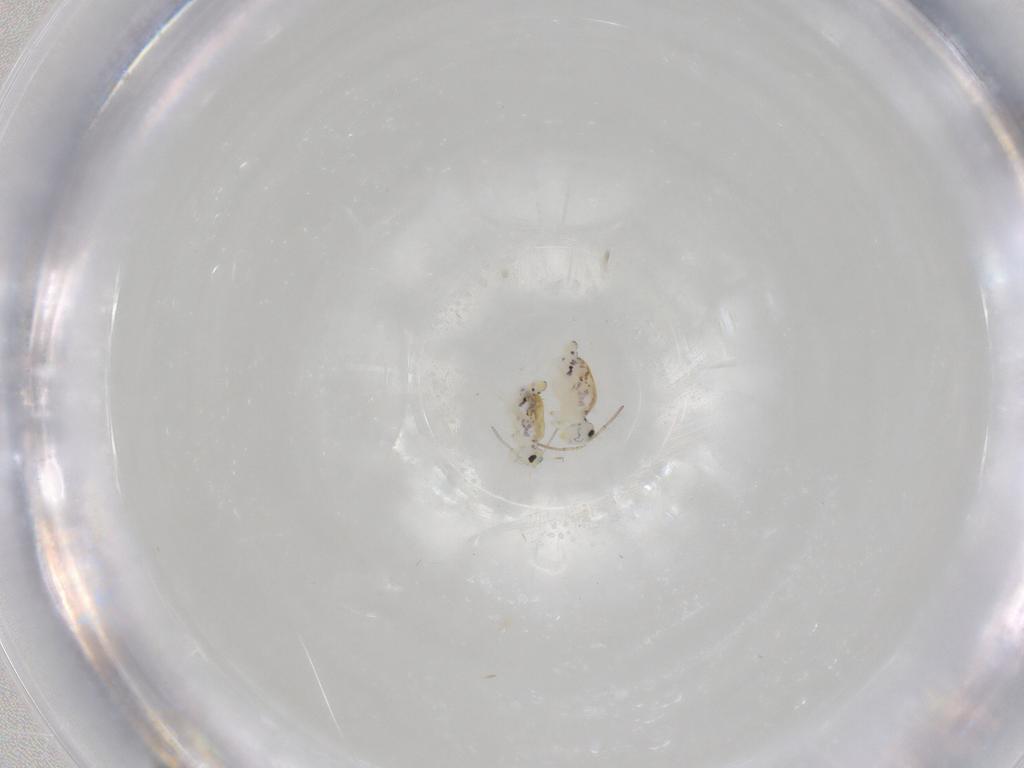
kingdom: Animalia
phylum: Arthropoda
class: Collembola
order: Symphypleona
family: Bourletiellidae
